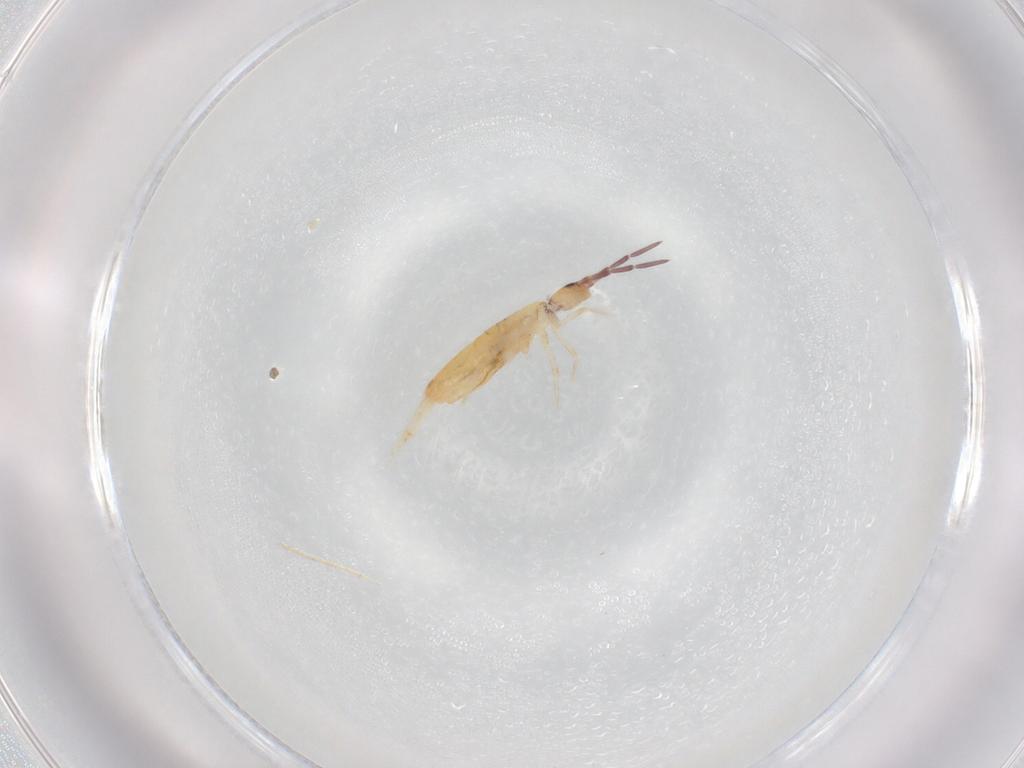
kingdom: Animalia
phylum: Arthropoda
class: Collembola
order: Entomobryomorpha
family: Entomobryidae
